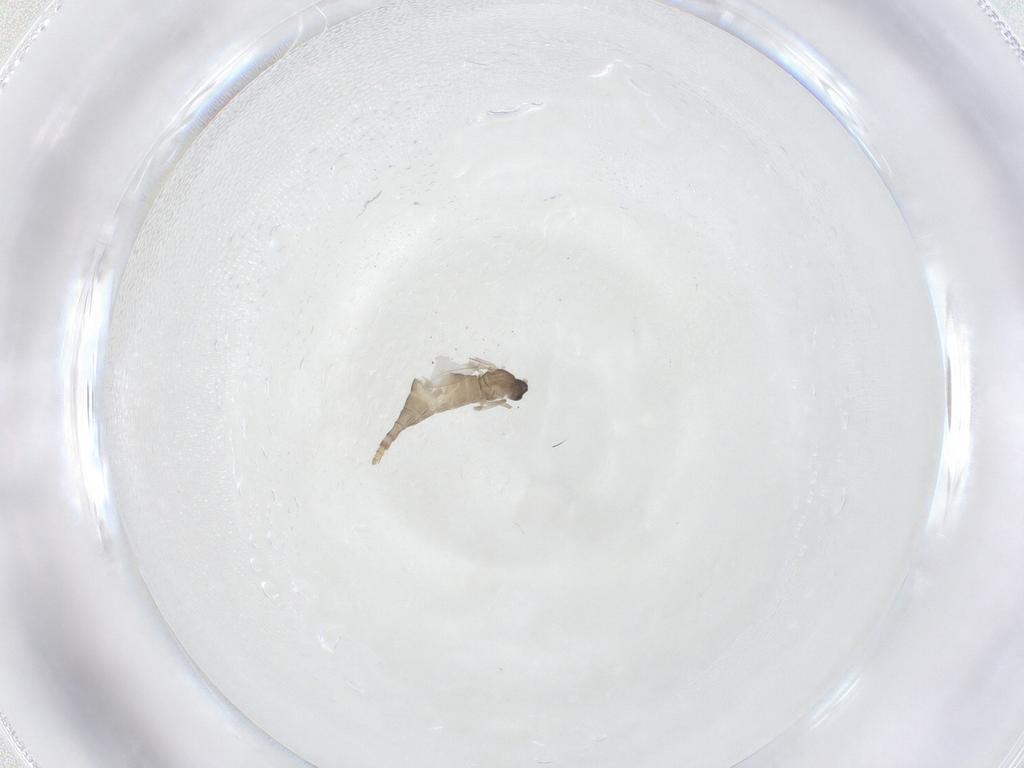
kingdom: Animalia
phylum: Arthropoda
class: Insecta
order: Diptera
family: Cecidomyiidae
